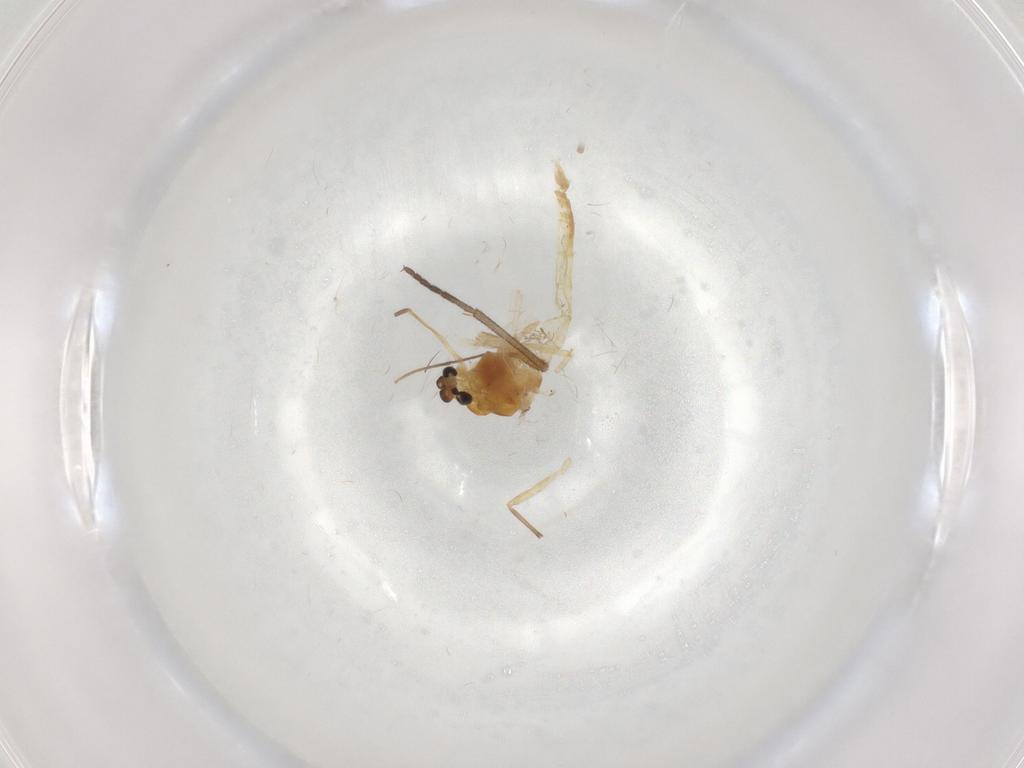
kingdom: Animalia
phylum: Arthropoda
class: Insecta
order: Diptera
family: Chironomidae
